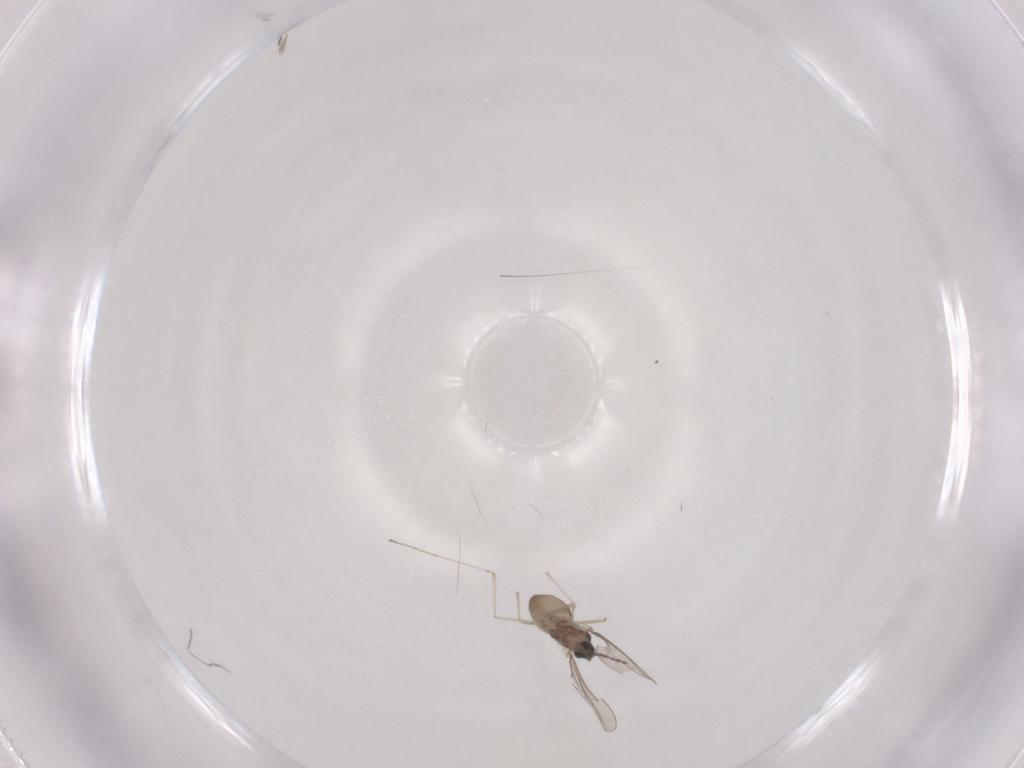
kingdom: Animalia
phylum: Arthropoda
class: Insecta
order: Diptera
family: Cecidomyiidae
